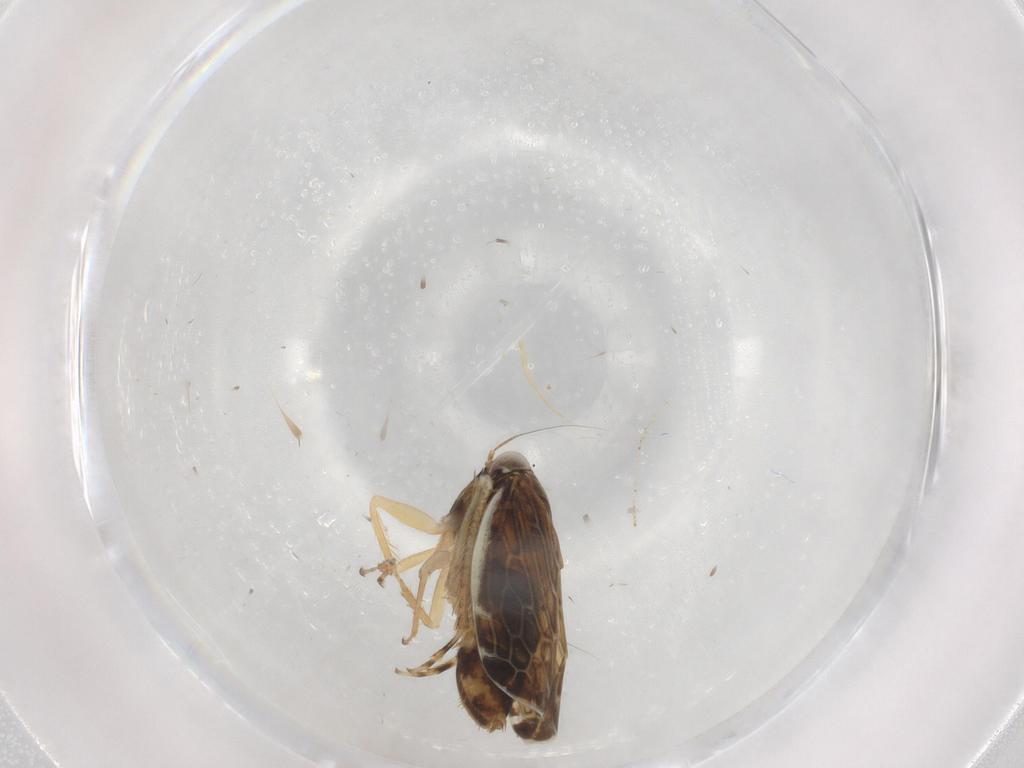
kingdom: Animalia
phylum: Arthropoda
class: Insecta
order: Hemiptera
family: Cicadellidae
